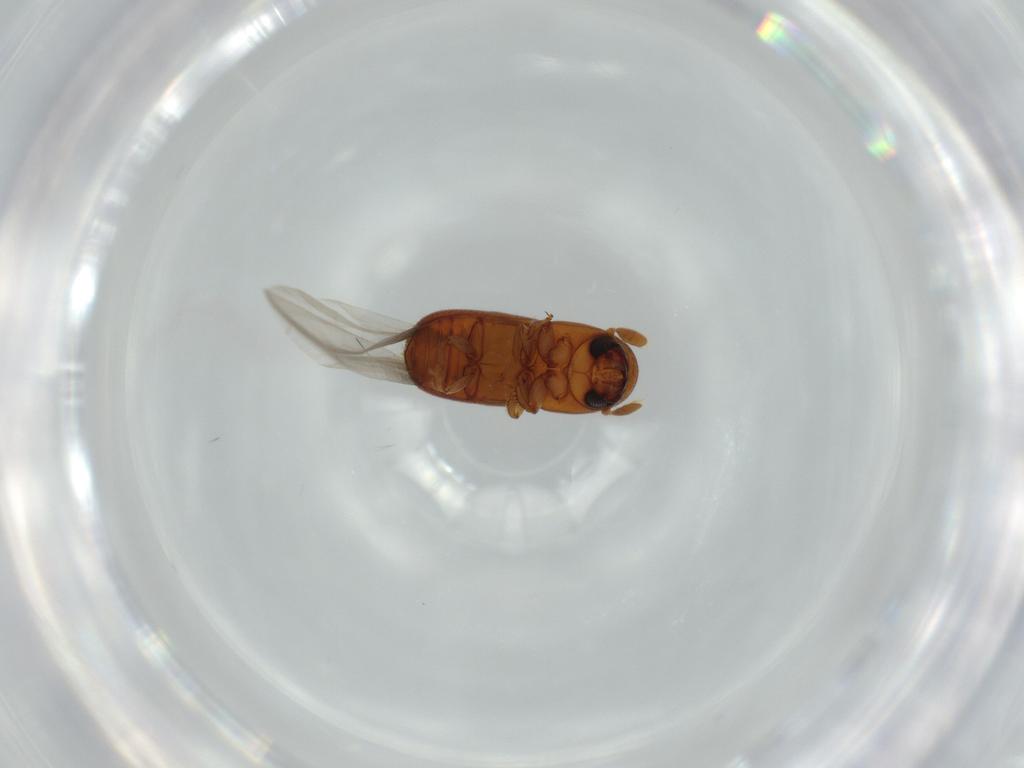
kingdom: Animalia
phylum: Arthropoda
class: Insecta
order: Coleoptera
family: Curculionidae
